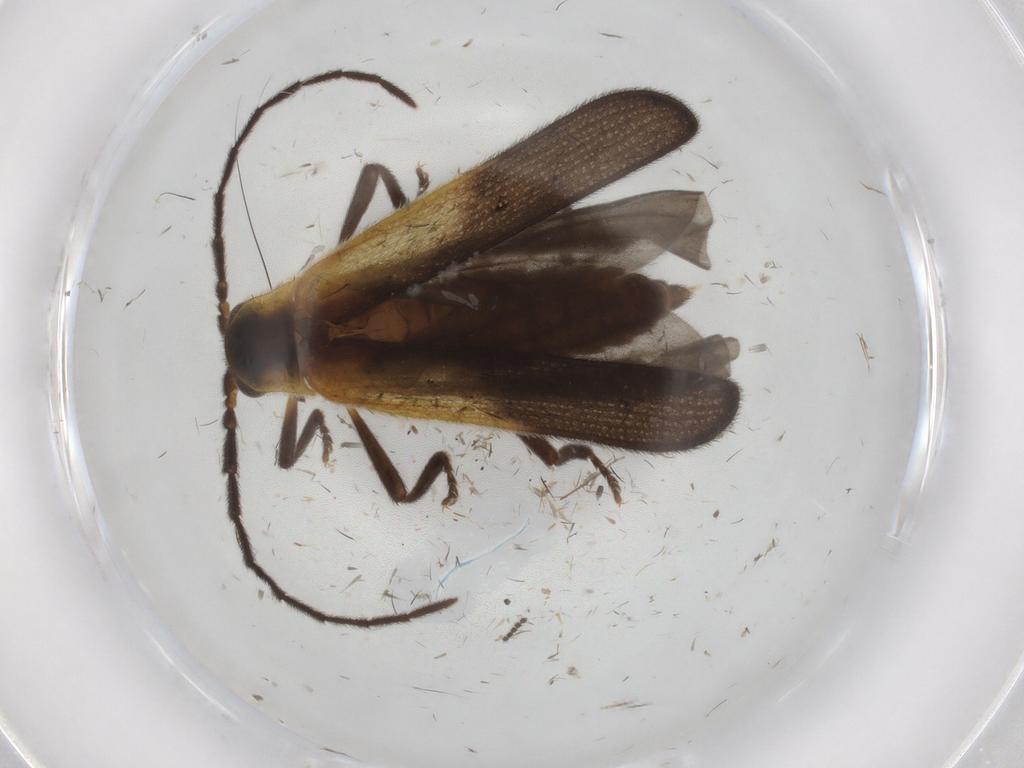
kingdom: Animalia
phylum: Arthropoda
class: Insecta
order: Coleoptera
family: Lycidae
